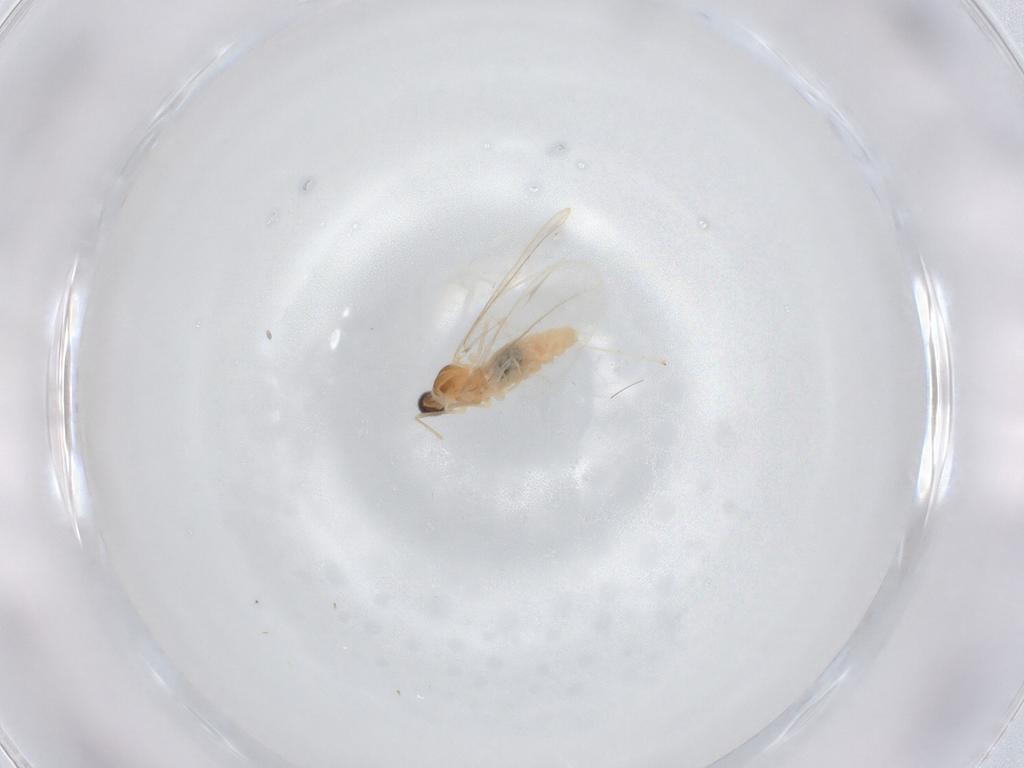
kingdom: Animalia
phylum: Arthropoda
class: Insecta
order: Diptera
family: Cecidomyiidae
